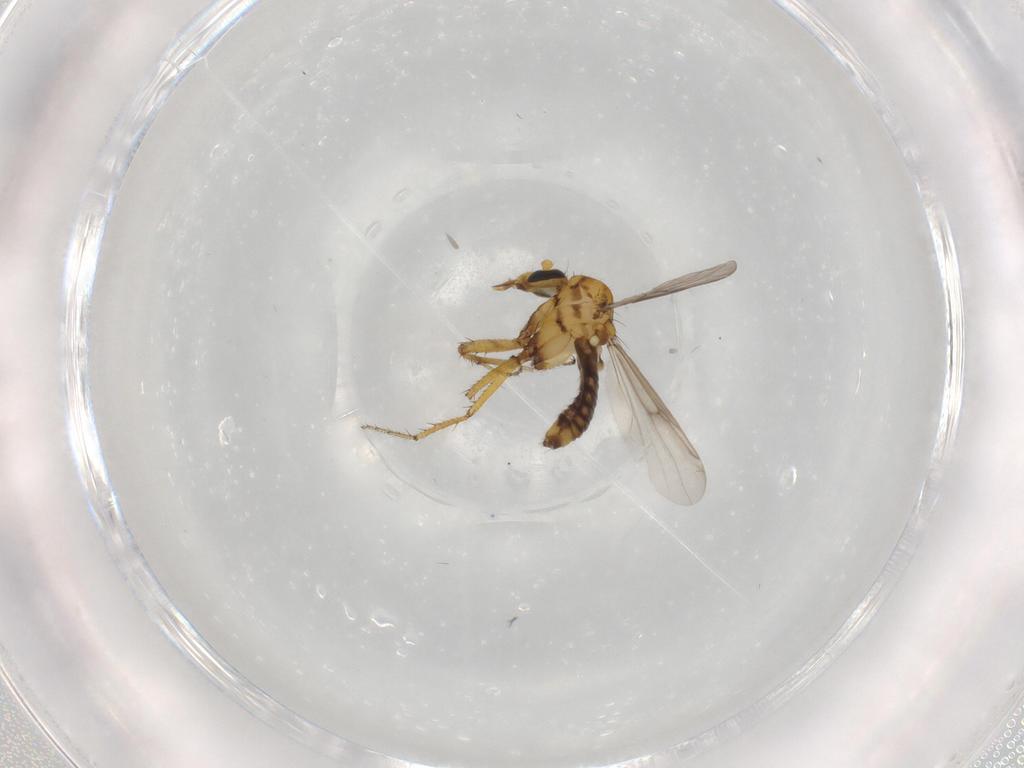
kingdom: Animalia
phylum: Arthropoda
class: Insecta
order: Diptera
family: Ceratopogonidae
